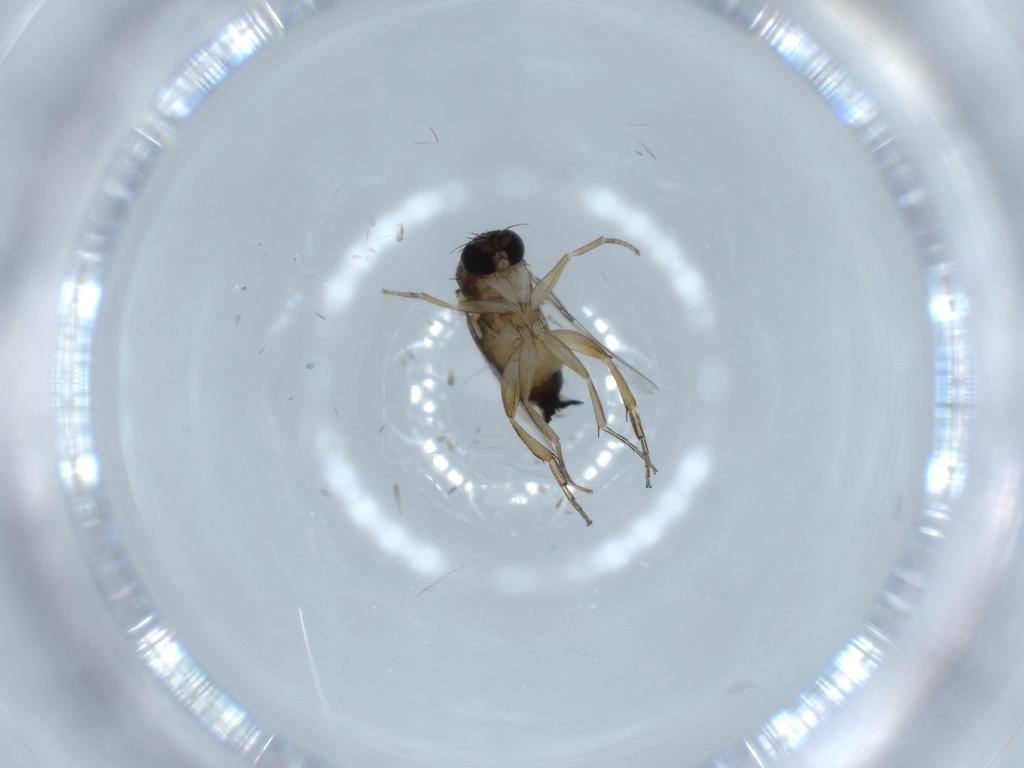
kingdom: Animalia
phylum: Arthropoda
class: Insecta
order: Diptera
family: Phoridae
